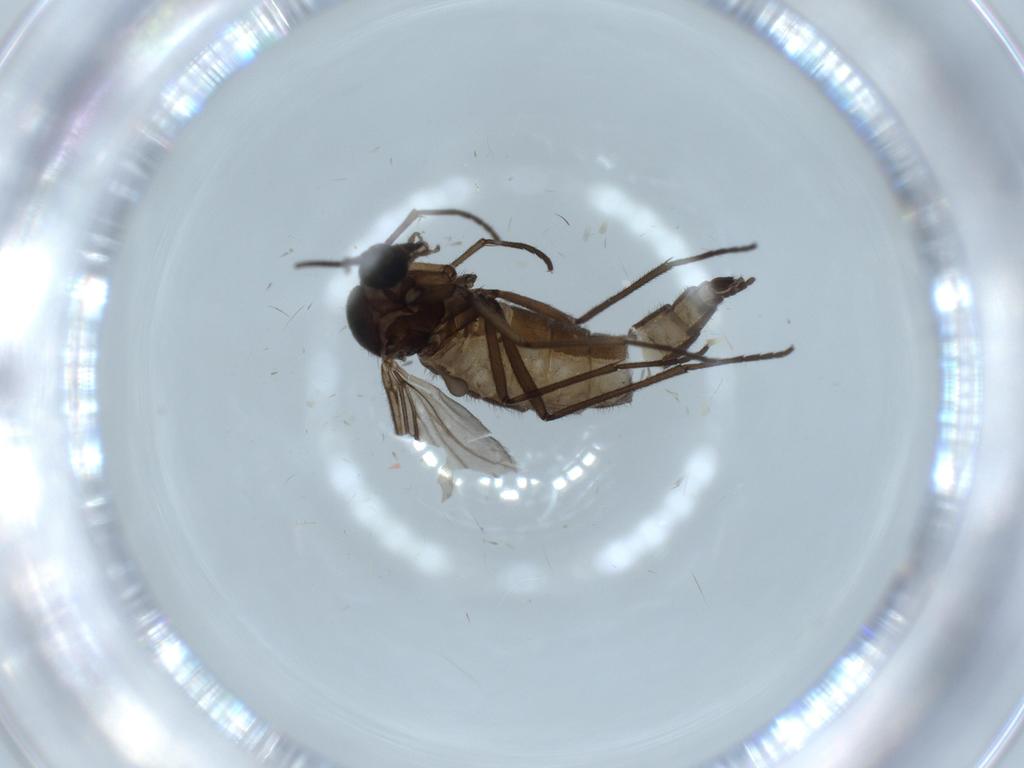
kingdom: Animalia
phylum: Arthropoda
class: Insecta
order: Diptera
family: Sciaridae
